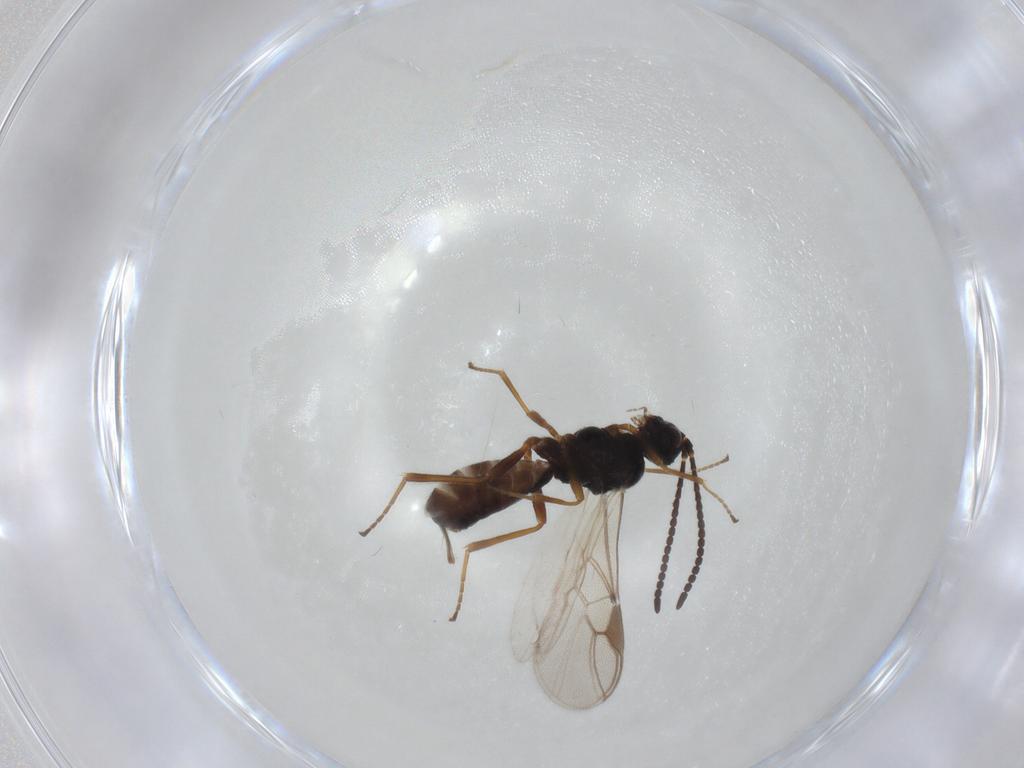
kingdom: Animalia
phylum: Arthropoda
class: Insecta
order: Hymenoptera
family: Braconidae
